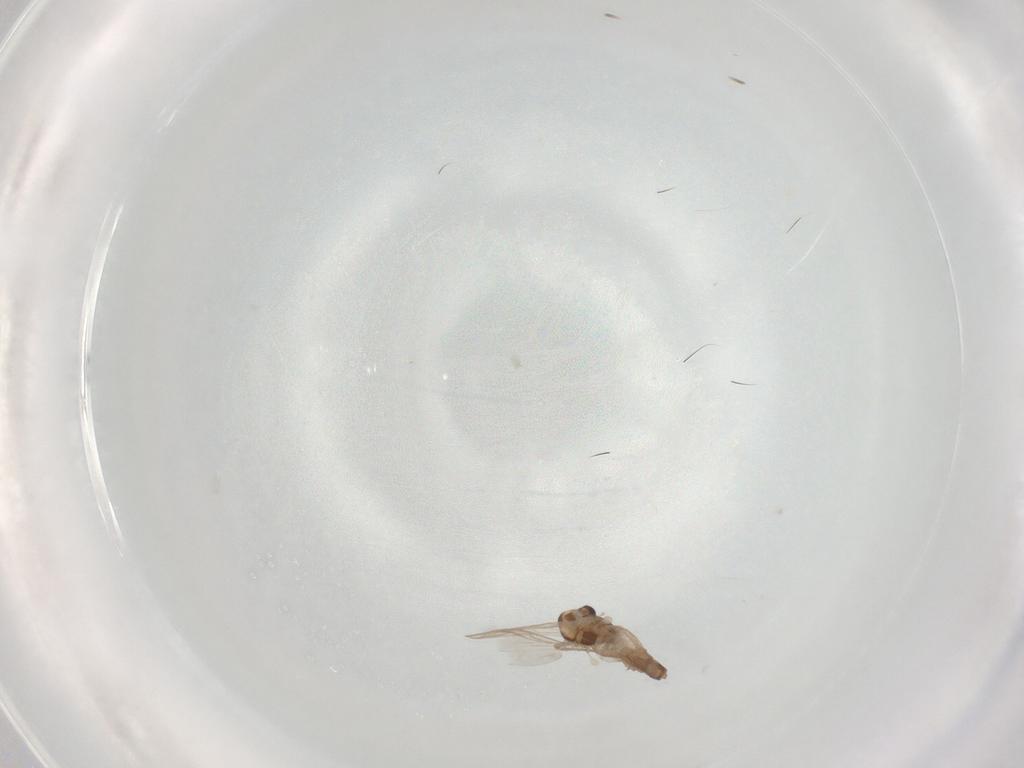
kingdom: Animalia
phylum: Arthropoda
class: Insecta
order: Diptera
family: Chironomidae
